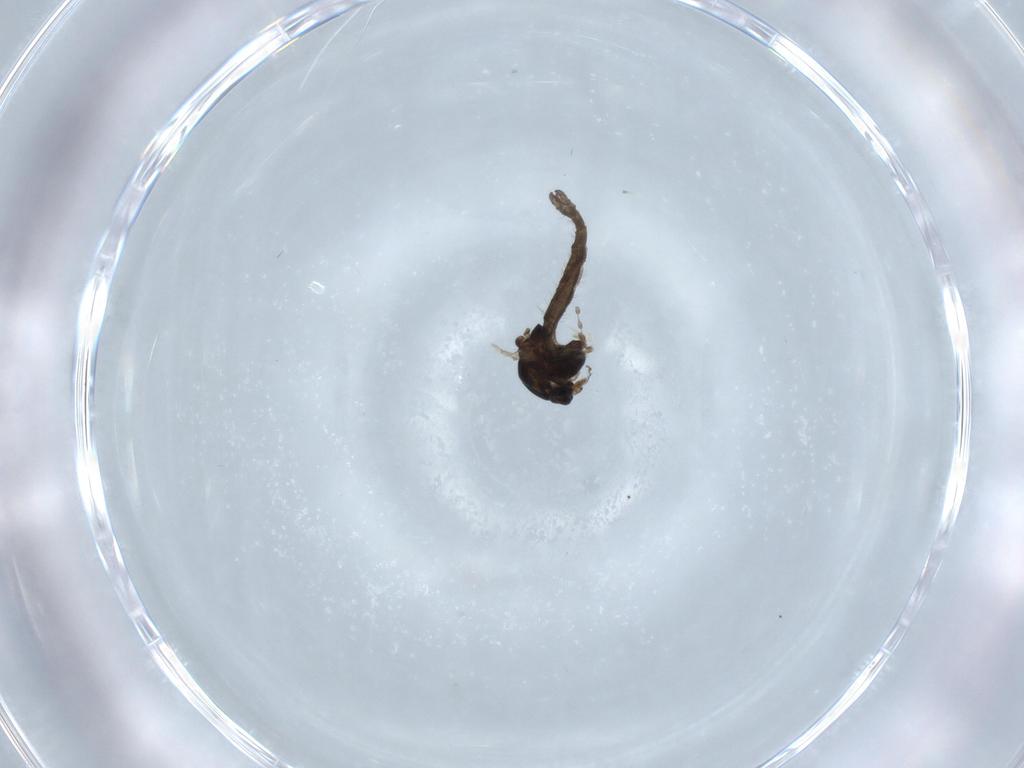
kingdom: Animalia
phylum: Arthropoda
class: Insecta
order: Diptera
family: Chironomidae
